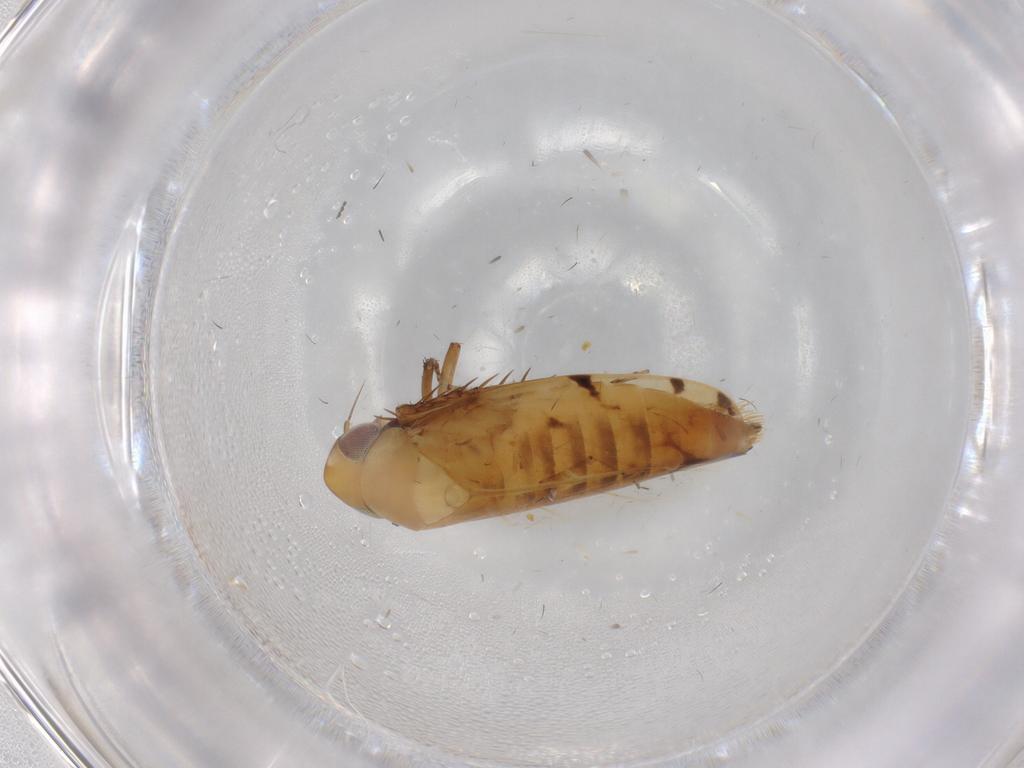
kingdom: Animalia
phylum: Arthropoda
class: Insecta
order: Hemiptera
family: Cicadellidae
